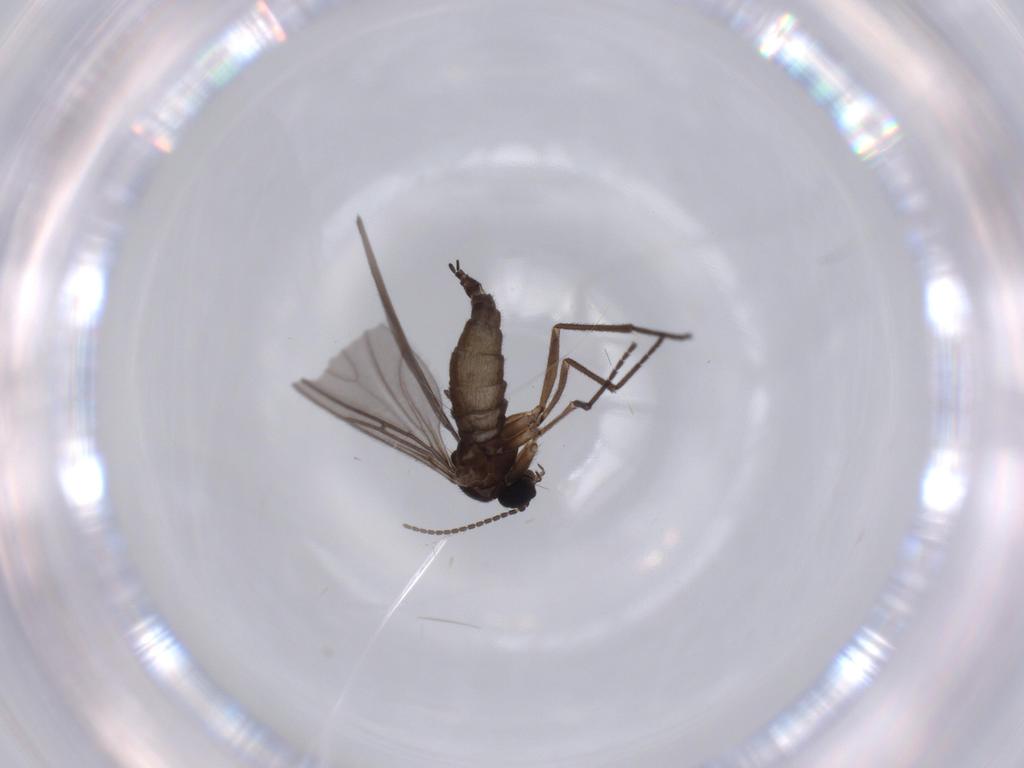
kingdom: Animalia
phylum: Arthropoda
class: Insecta
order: Diptera
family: Sciaridae
